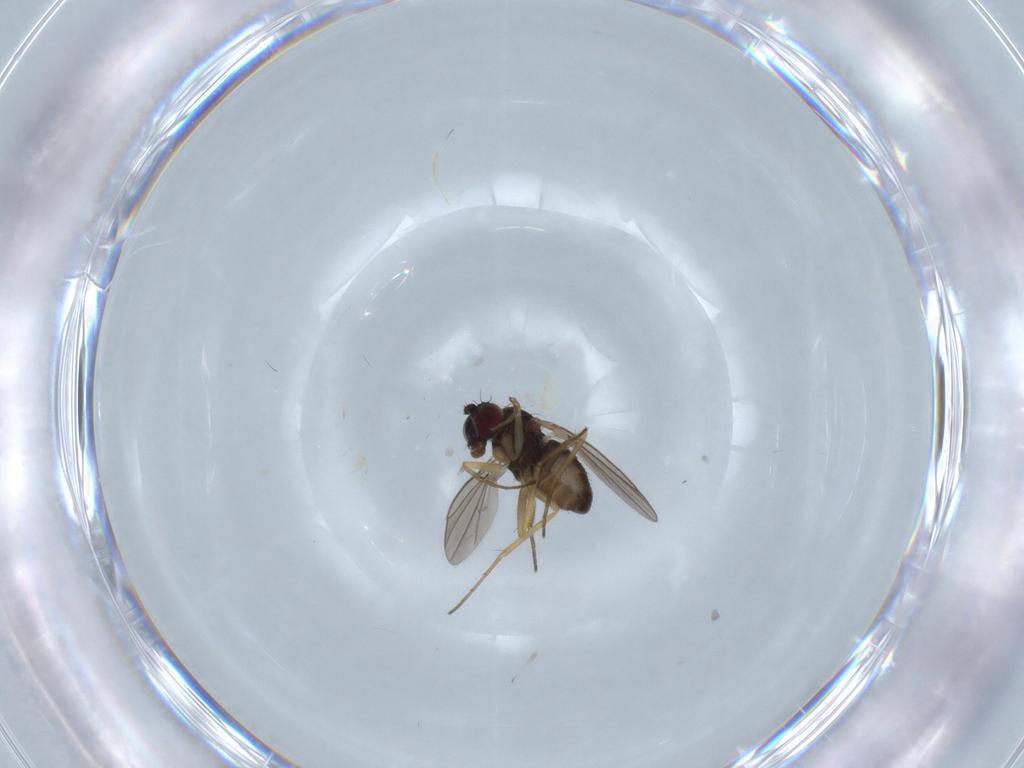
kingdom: Animalia
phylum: Arthropoda
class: Insecta
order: Diptera
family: Dolichopodidae
